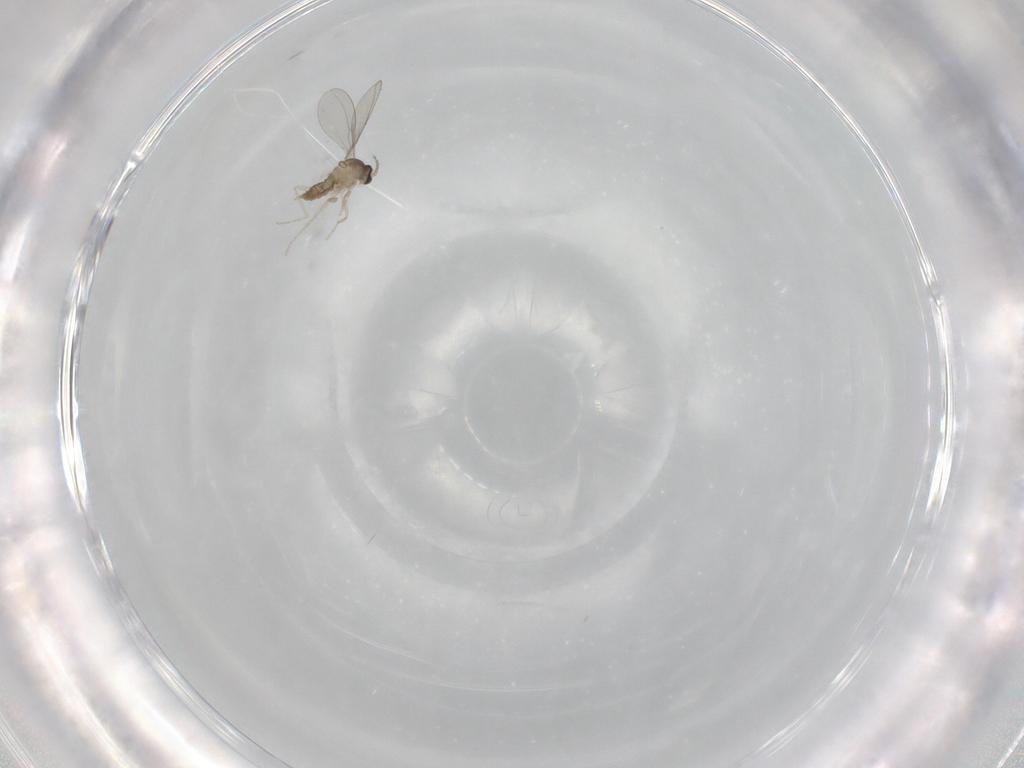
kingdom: Animalia
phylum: Arthropoda
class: Insecta
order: Diptera
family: Cecidomyiidae
